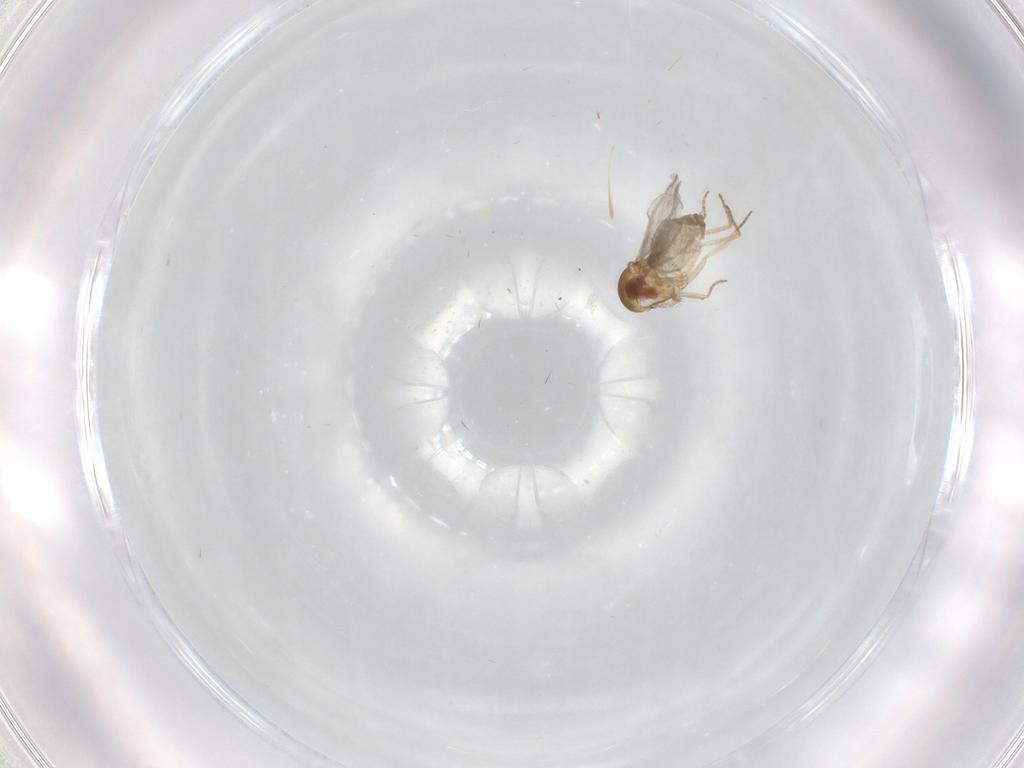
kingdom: Animalia
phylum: Arthropoda
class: Insecta
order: Diptera
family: Ceratopogonidae
